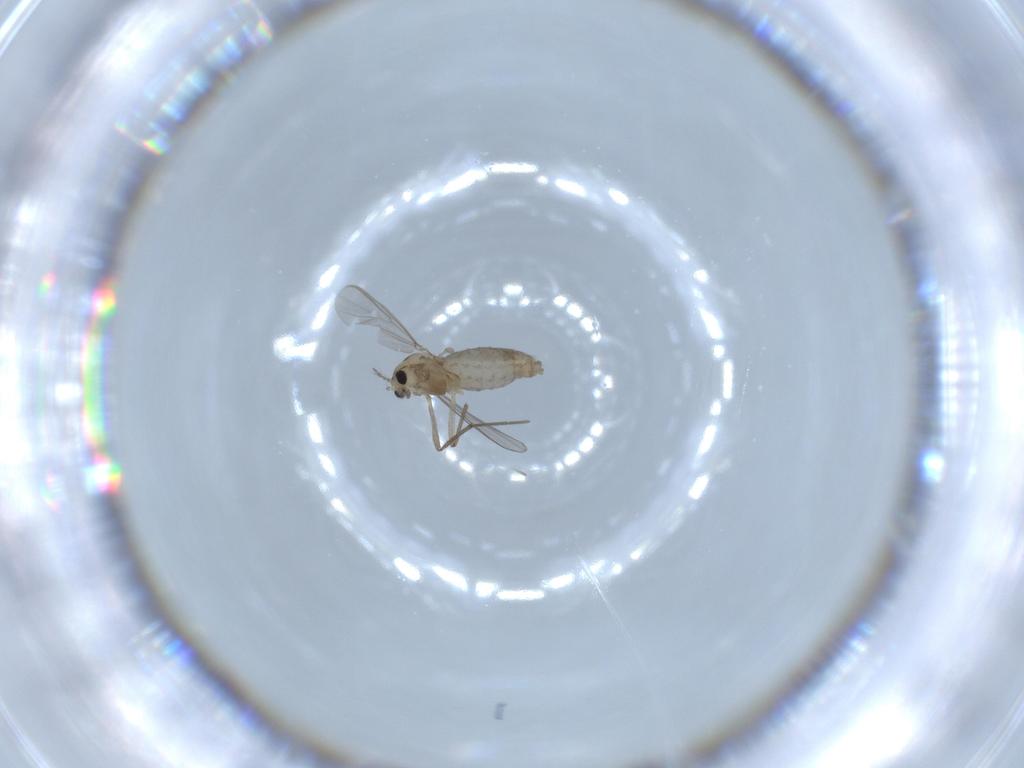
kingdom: Animalia
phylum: Arthropoda
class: Insecta
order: Diptera
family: Chironomidae
